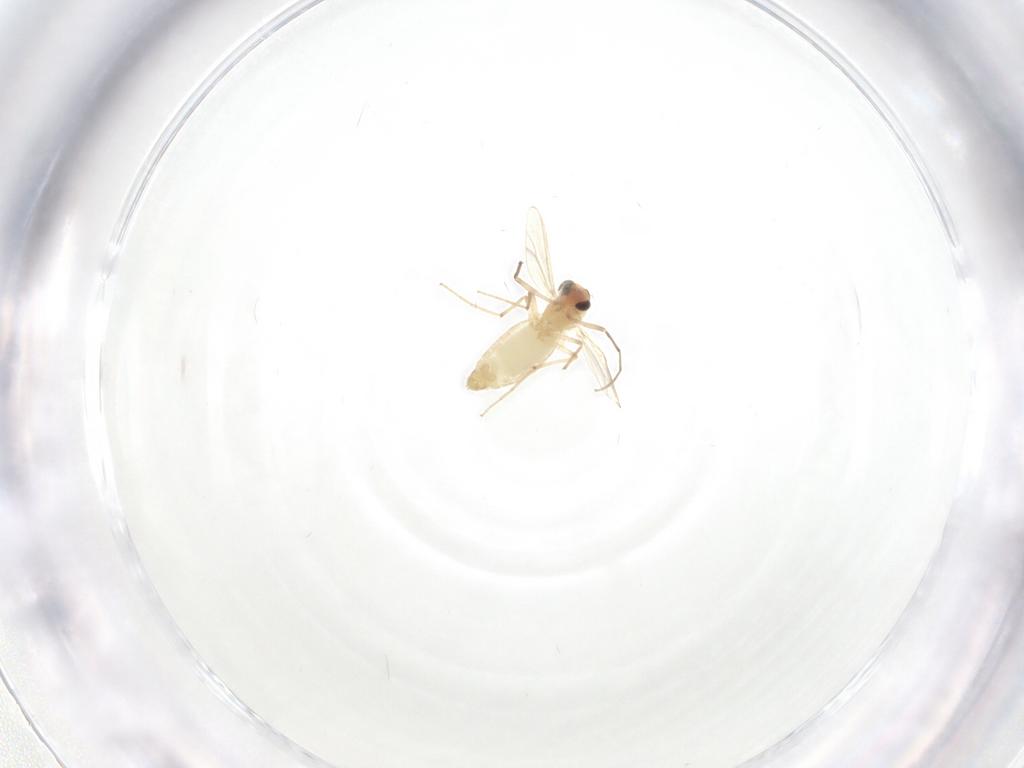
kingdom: Animalia
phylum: Arthropoda
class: Insecta
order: Diptera
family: Chironomidae
